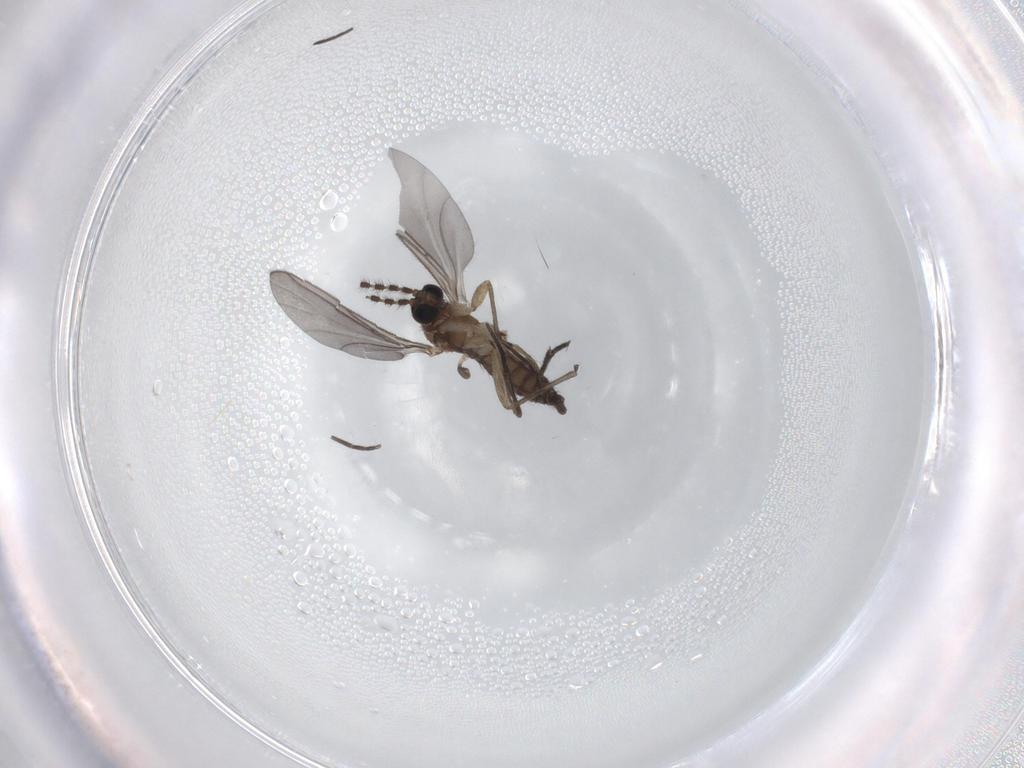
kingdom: Animalia
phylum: Arthropoda
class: Insecta
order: Diptera
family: Sciaridae
